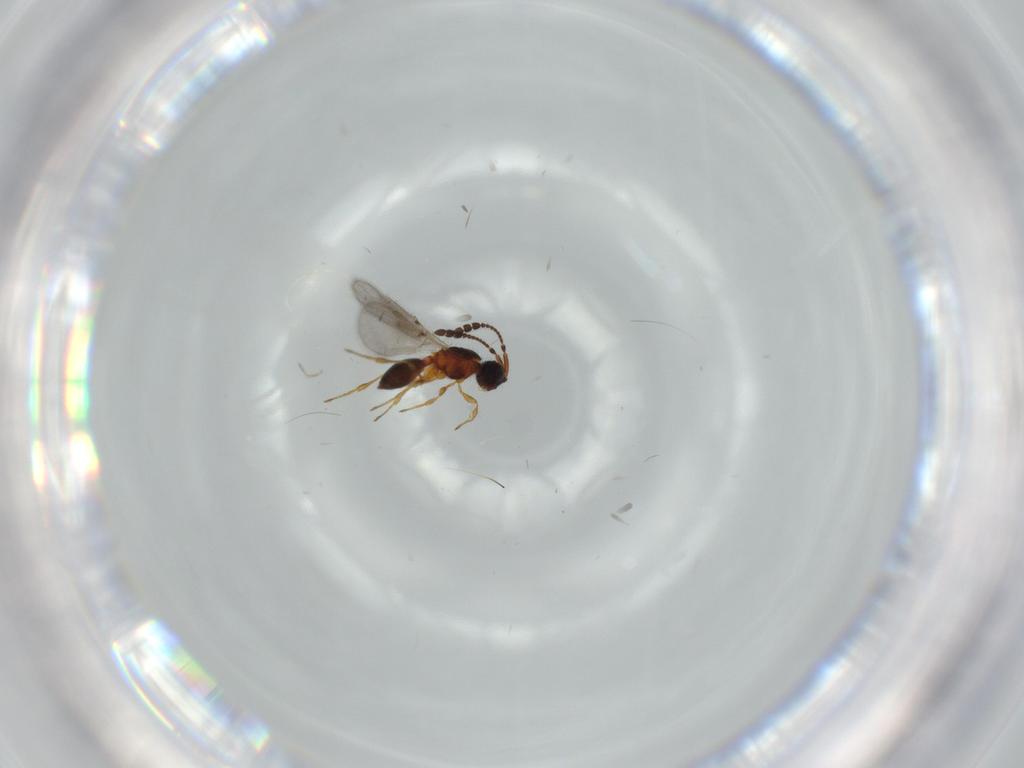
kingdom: Animalia
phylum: Arthropoda
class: Insecta
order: Hymenoptera
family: Diapriidae
